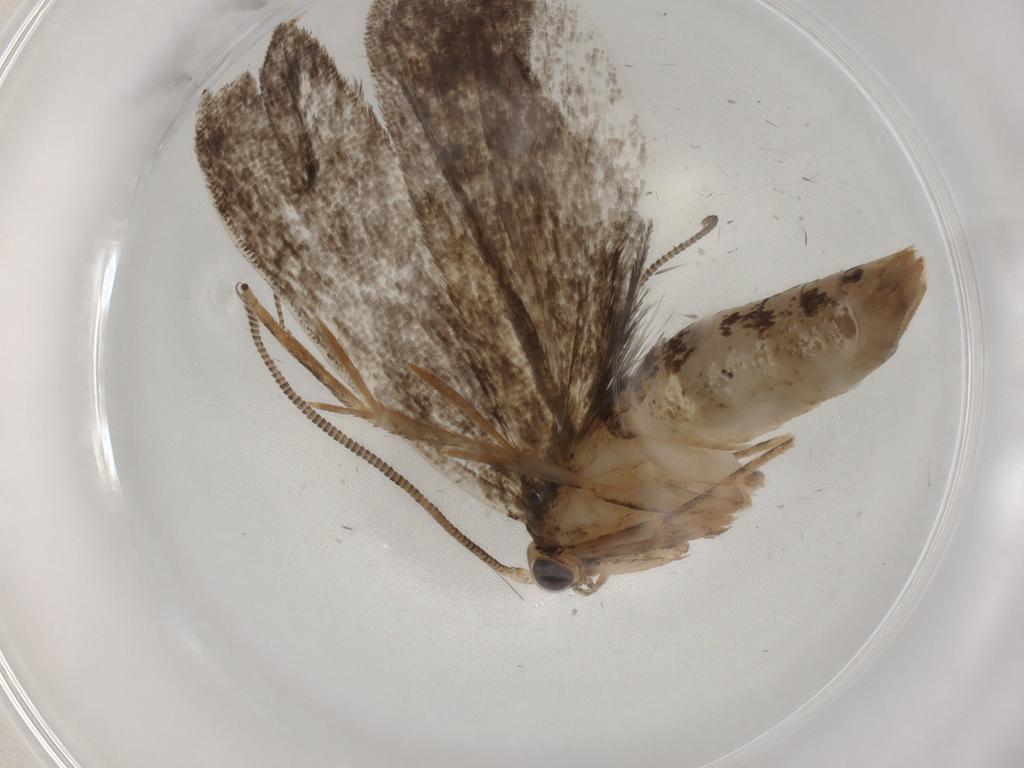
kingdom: Animalia
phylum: Arthropoda
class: Insecta
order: Lepidoptera
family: Tineidae
